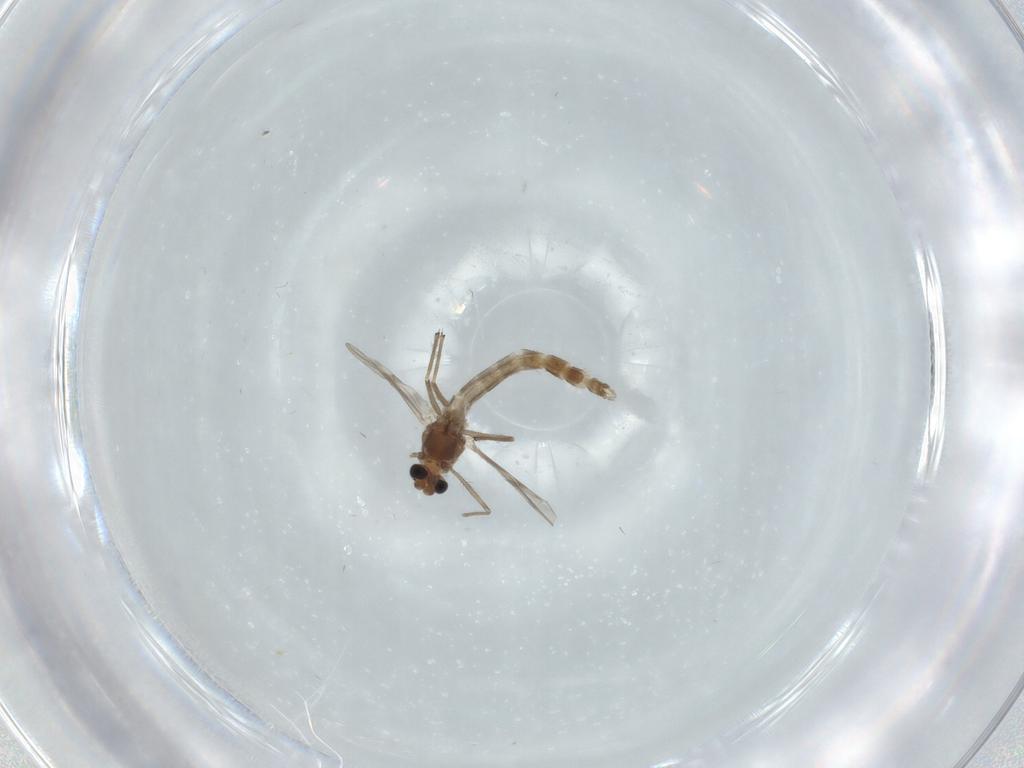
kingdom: Animalia
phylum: Arthropoda
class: Insecta
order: Diptera
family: Chironomidae
